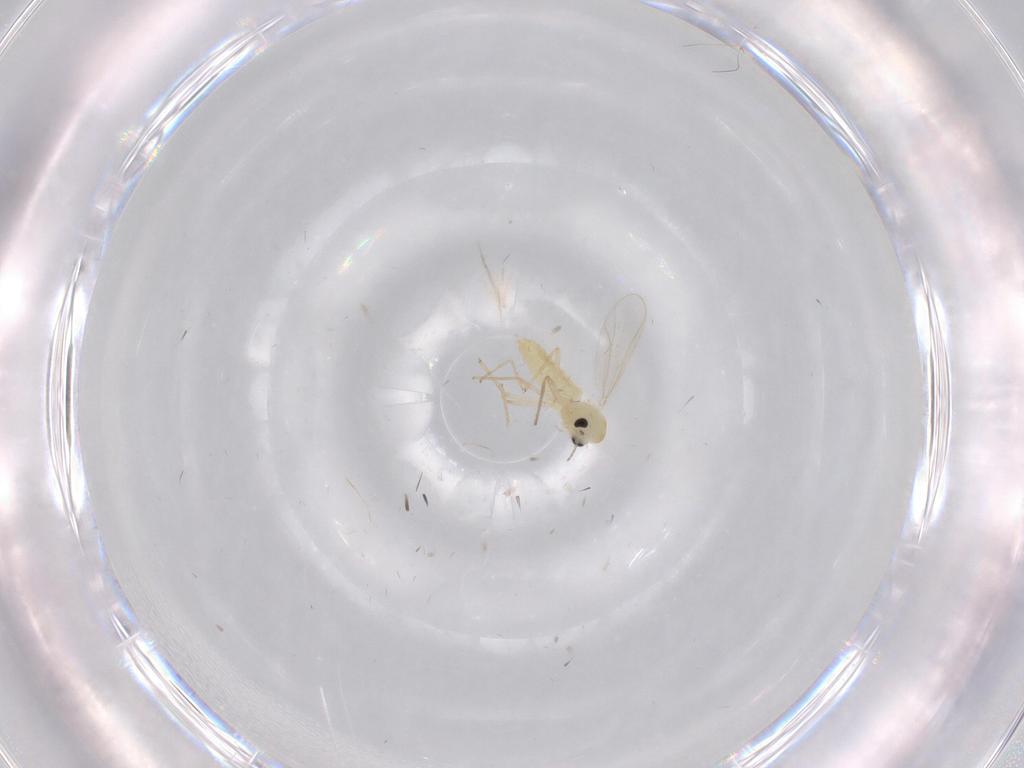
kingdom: Animalia
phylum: Arthropoda
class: Insecta
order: Diptera
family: Chironomidae
